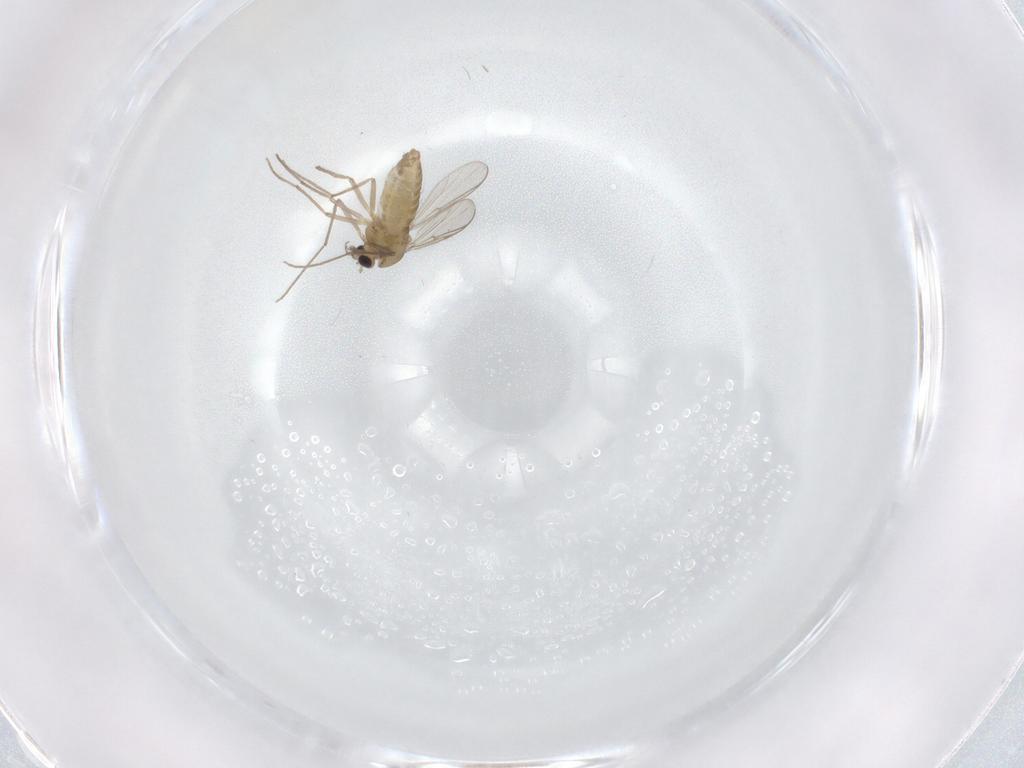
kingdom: Animalia
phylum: Arthropoda
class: Insecta
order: Diptera
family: Chironomidae
